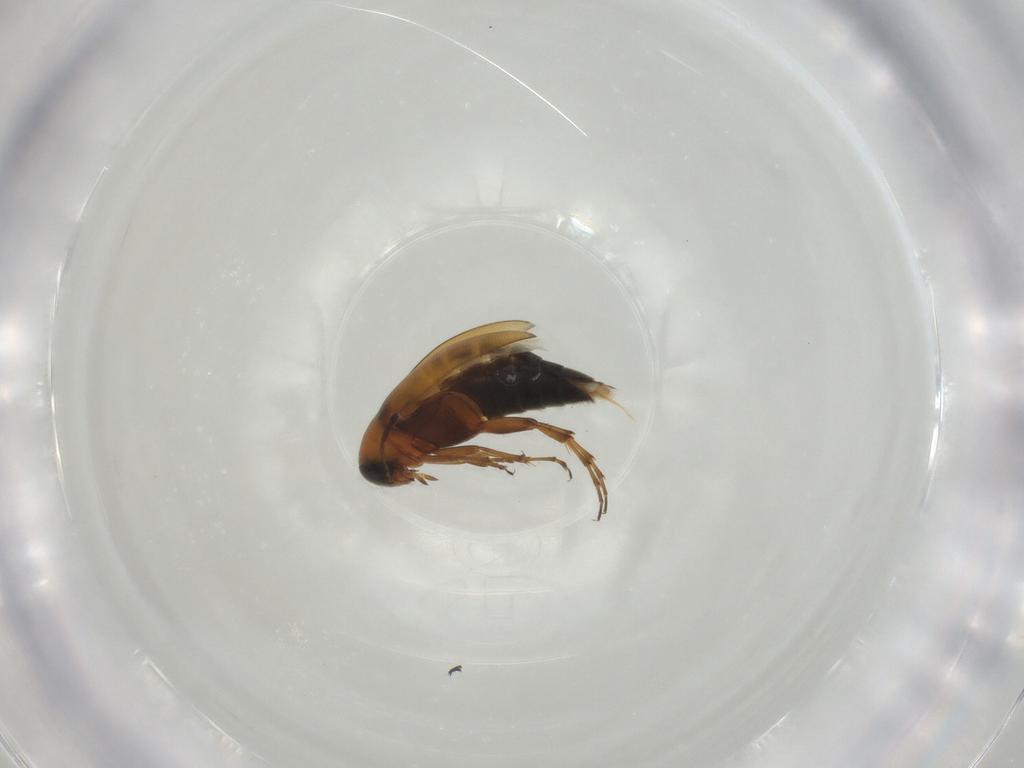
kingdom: Animalia
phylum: Arthropoda
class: Insecta
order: Coleoptera
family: Scraptiidae
